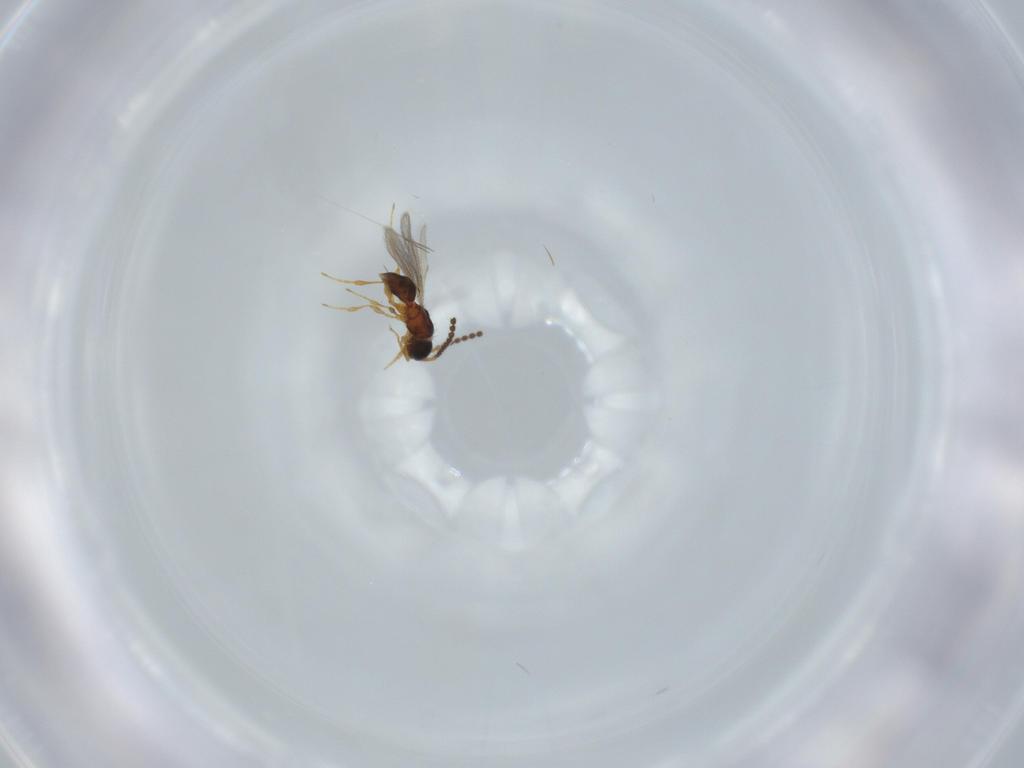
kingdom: Animalia
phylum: Arthropoda
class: Insecta
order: Hymenoptera
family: Diapriidae
